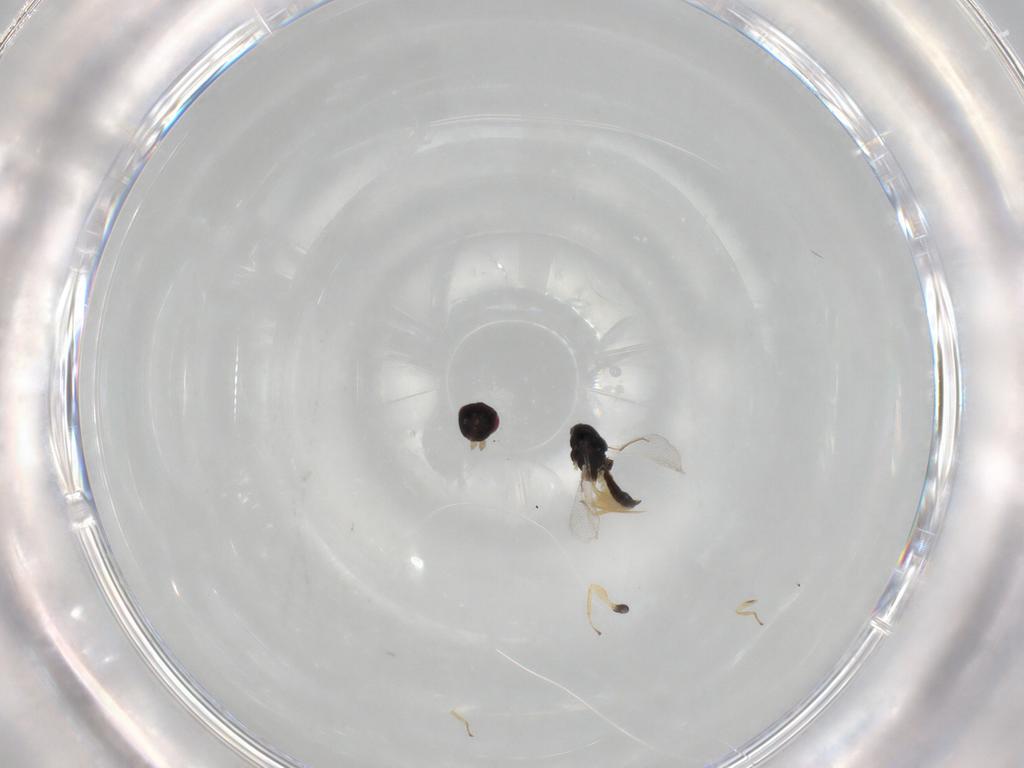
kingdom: Animalia
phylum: Arthropoda
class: Insecta
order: Hymenoptera
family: Eulophidae
